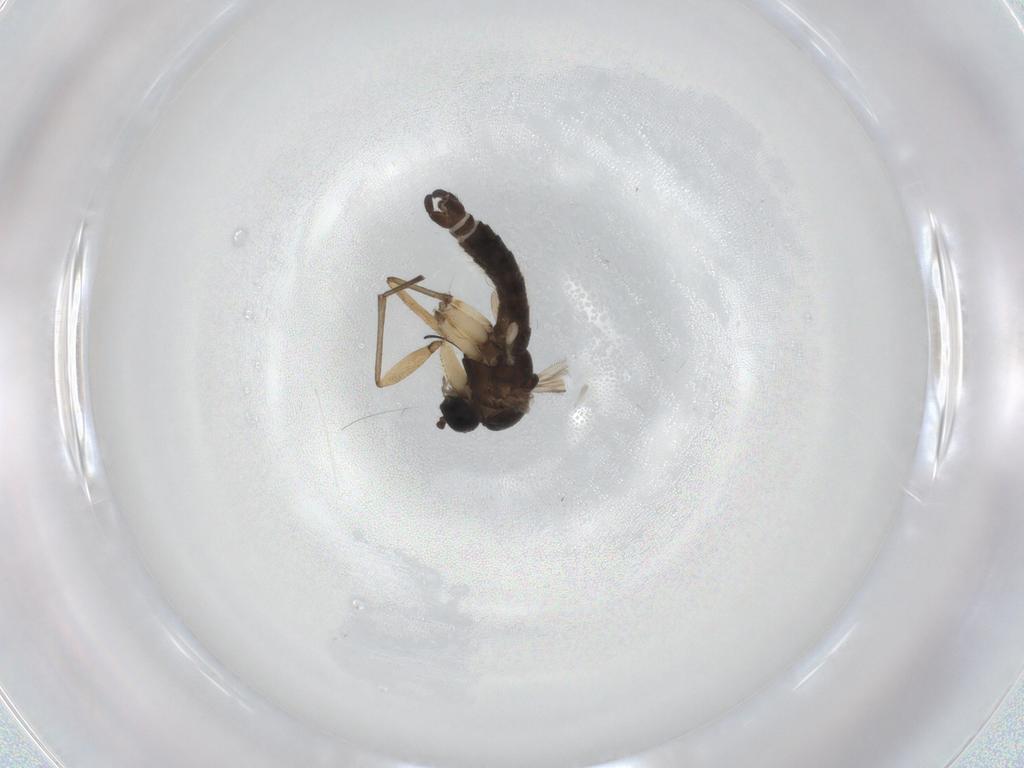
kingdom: Animalia
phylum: Arthropoda
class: Insecta
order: Diptera
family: Sciaridae
